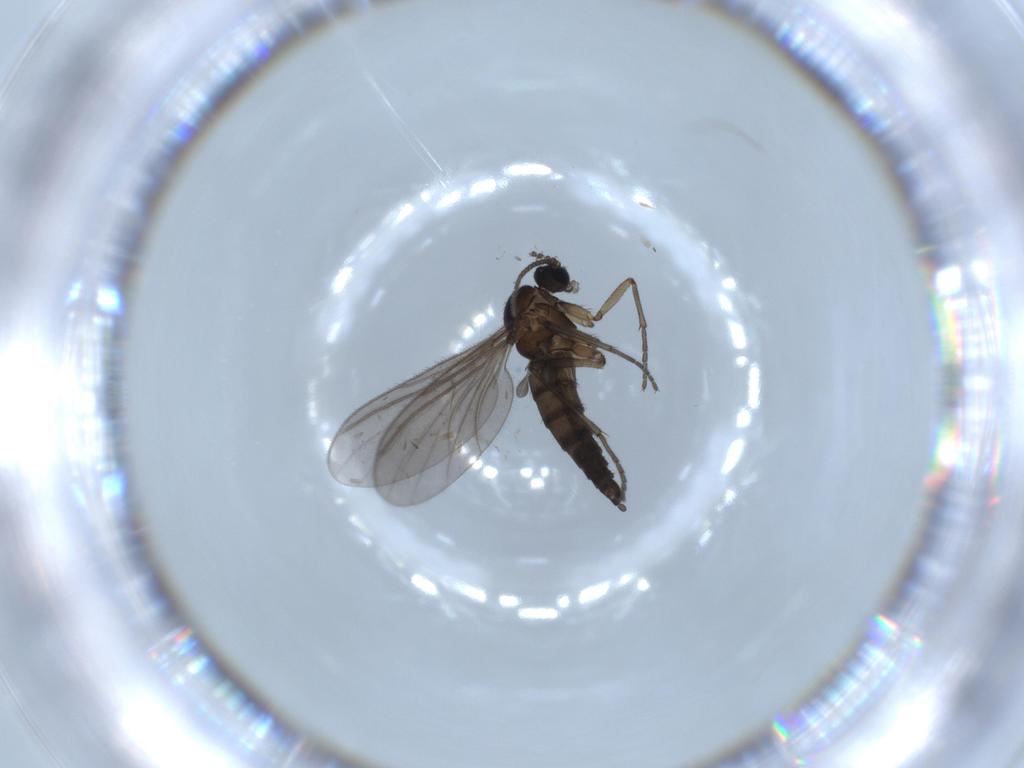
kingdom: Animalia
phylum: Arthropoda
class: Insecta
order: Diptera
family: Sciaridae
